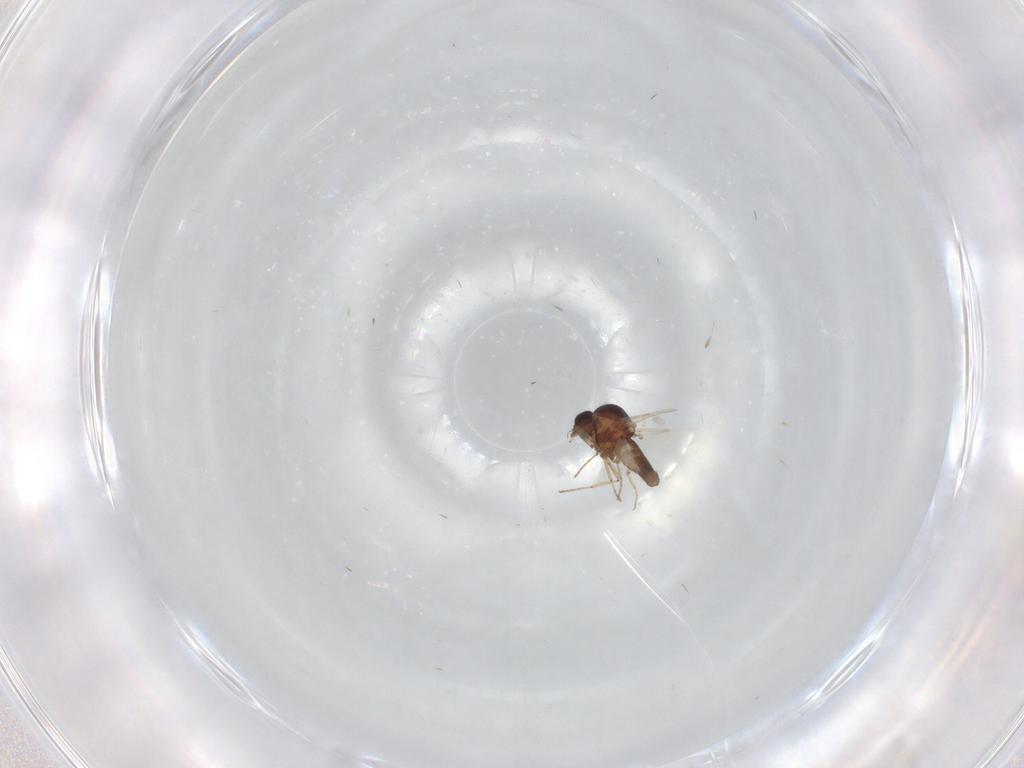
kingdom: Animalia
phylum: Arthropoda
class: Insecta
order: Diptera
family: Ceratopogonidae
